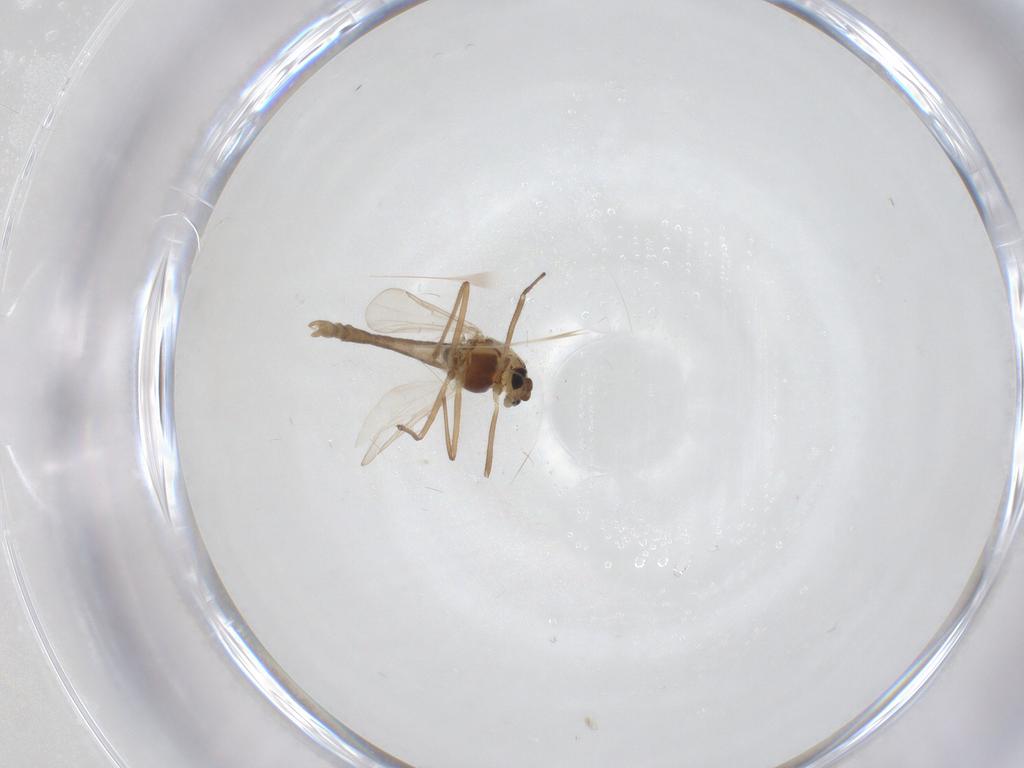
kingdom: Animalia
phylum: Arthropoda
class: Insecta
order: Diptera
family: Chironomidae
